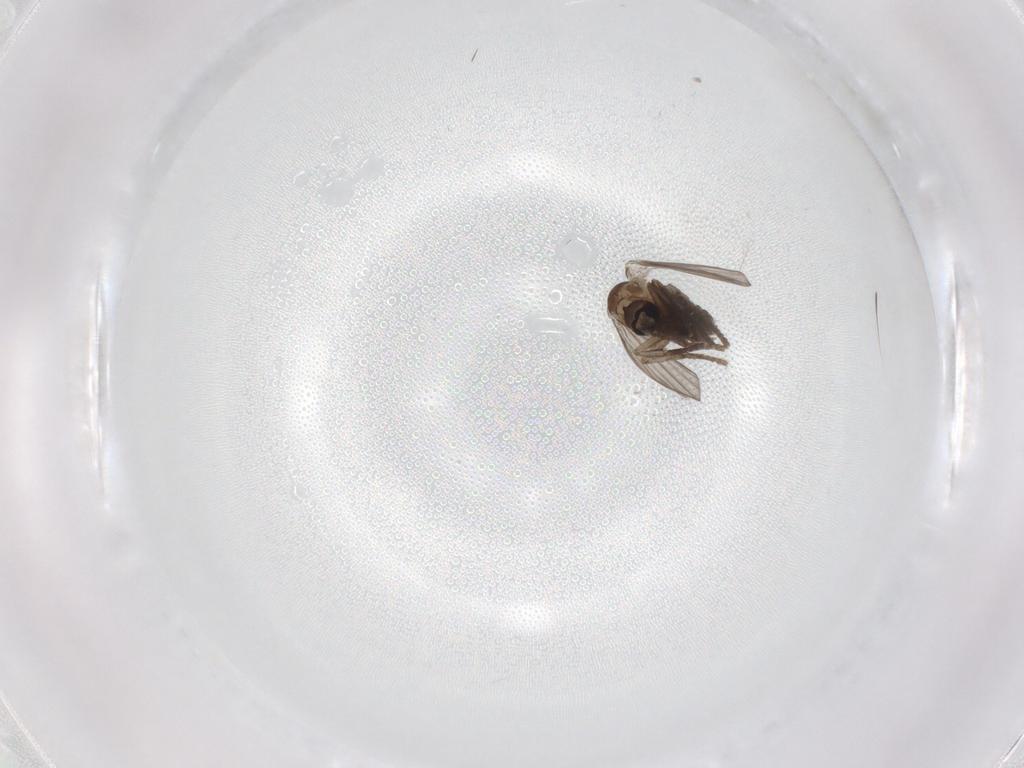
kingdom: Animalia
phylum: Arthropoda
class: Insecta
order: Diptera
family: Psychodidae
